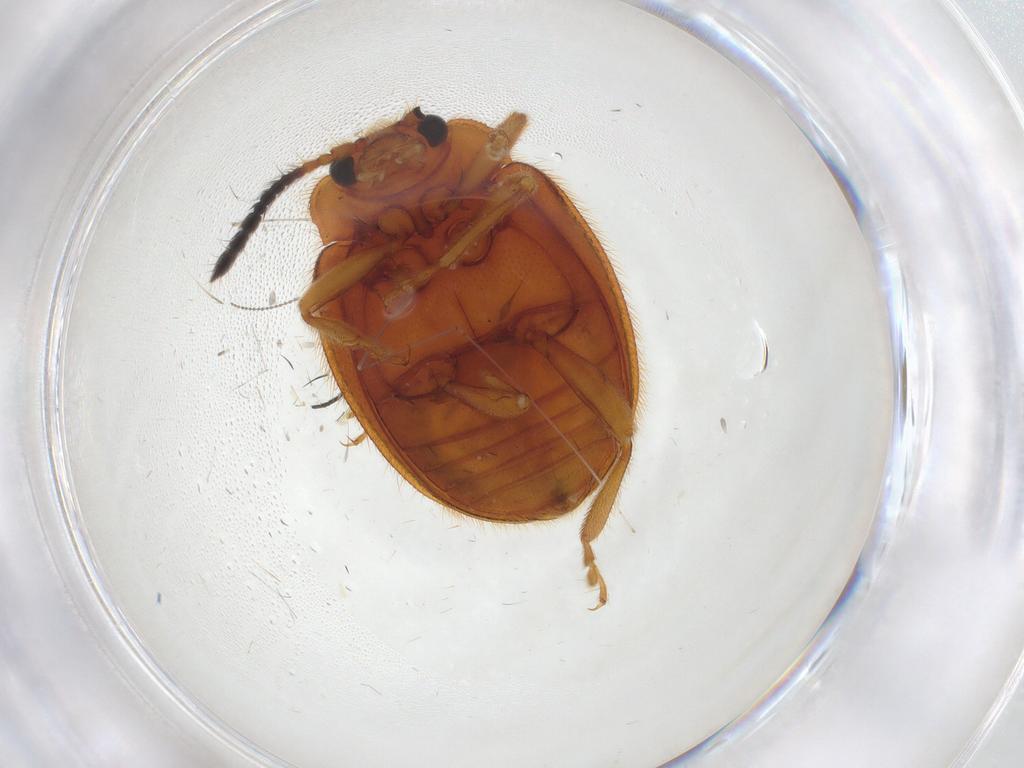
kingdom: Animalia
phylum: Arthropoda
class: Insecta
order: Coleoptera
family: Endomychidae
